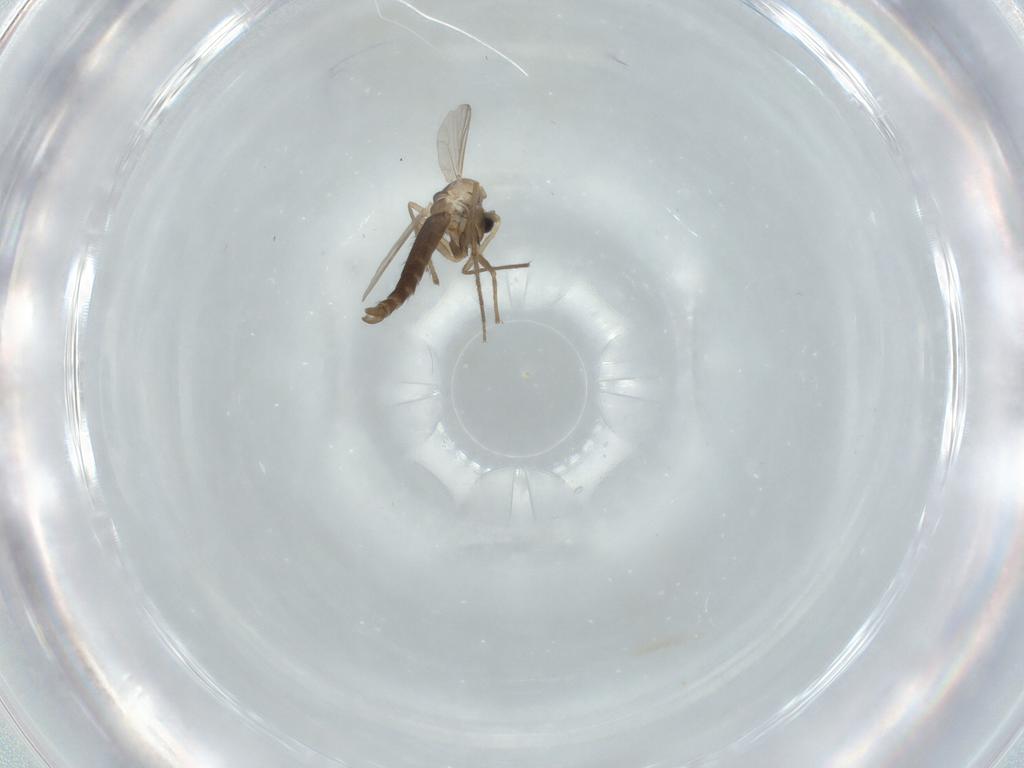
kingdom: Animalia
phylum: Arthropoda
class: Insecta
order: Diptera
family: Chironomidae
